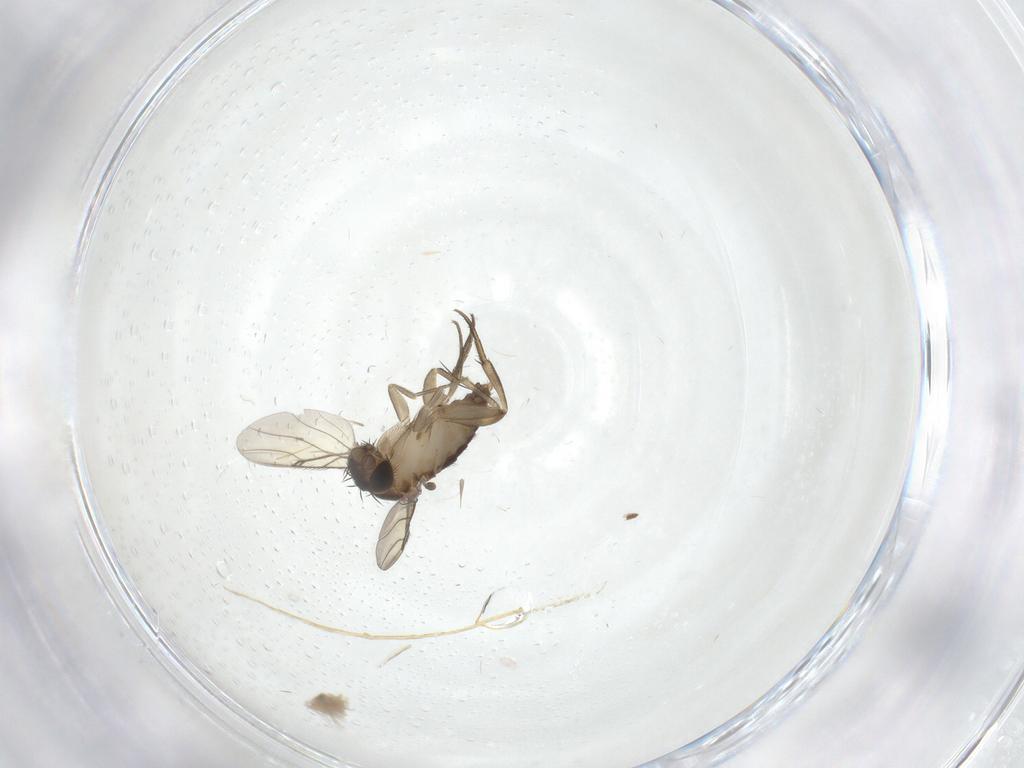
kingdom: Animalia
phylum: Arthropoda
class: Insecta
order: Diptera
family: Phoridae
